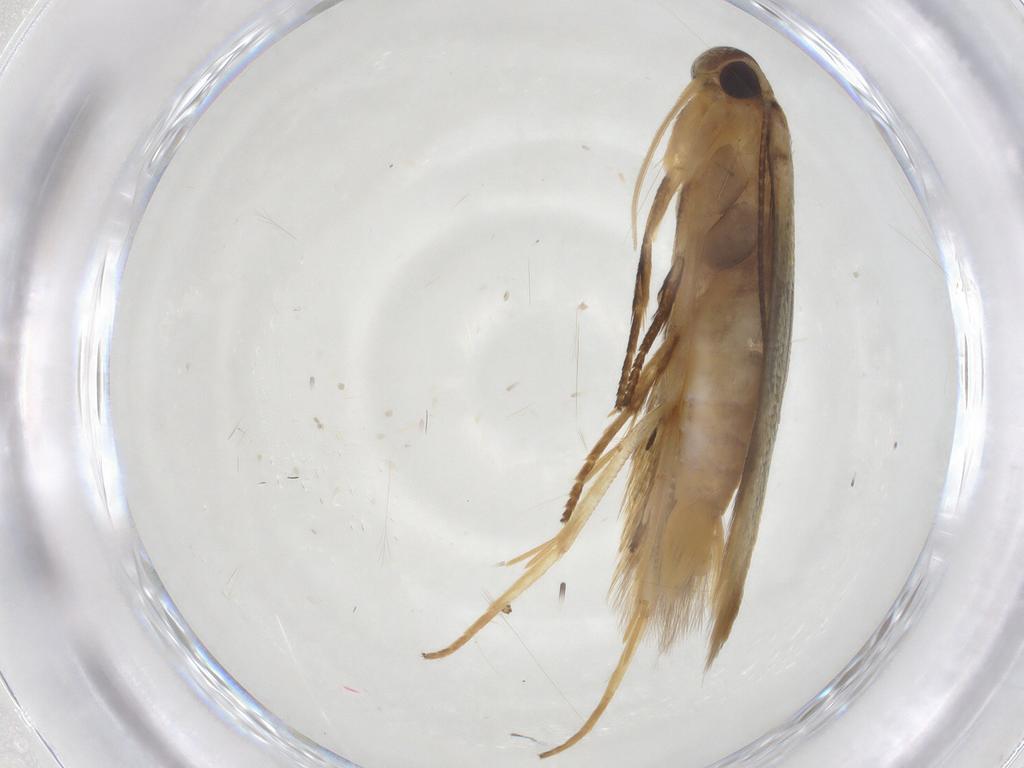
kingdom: Animalia
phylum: Arthropoda
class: Insecta
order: Lepidoptera
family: Stathmopodidae
